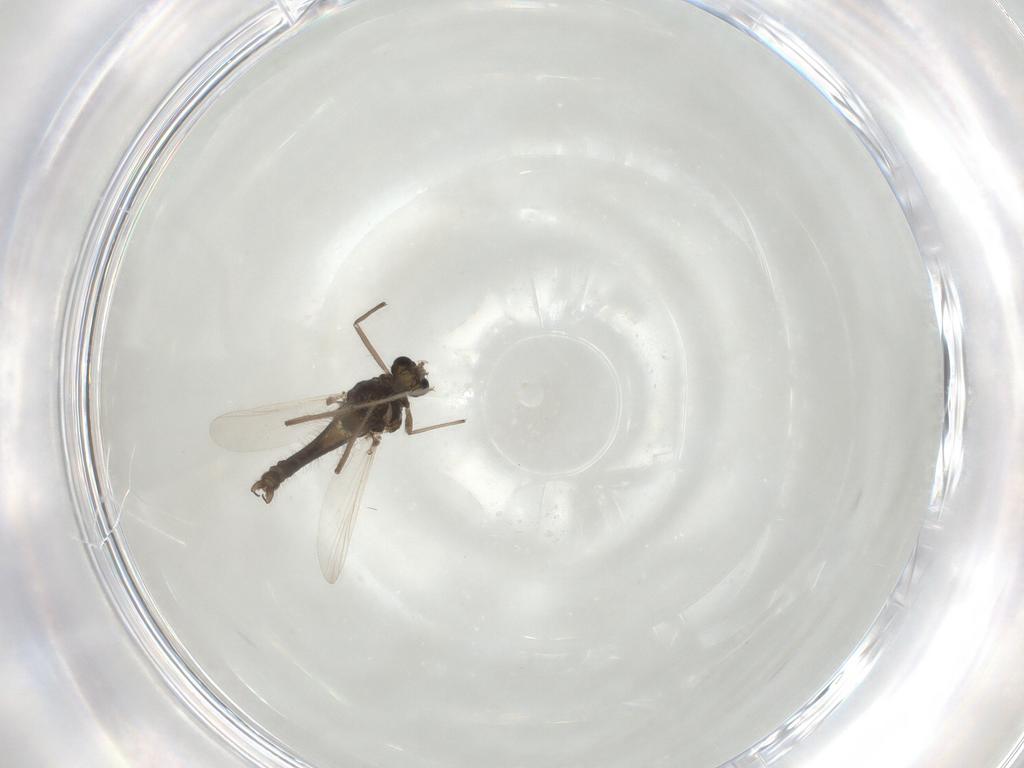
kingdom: Animalia
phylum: Arthropoda
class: Insecta
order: Diptera
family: Chironomidae
